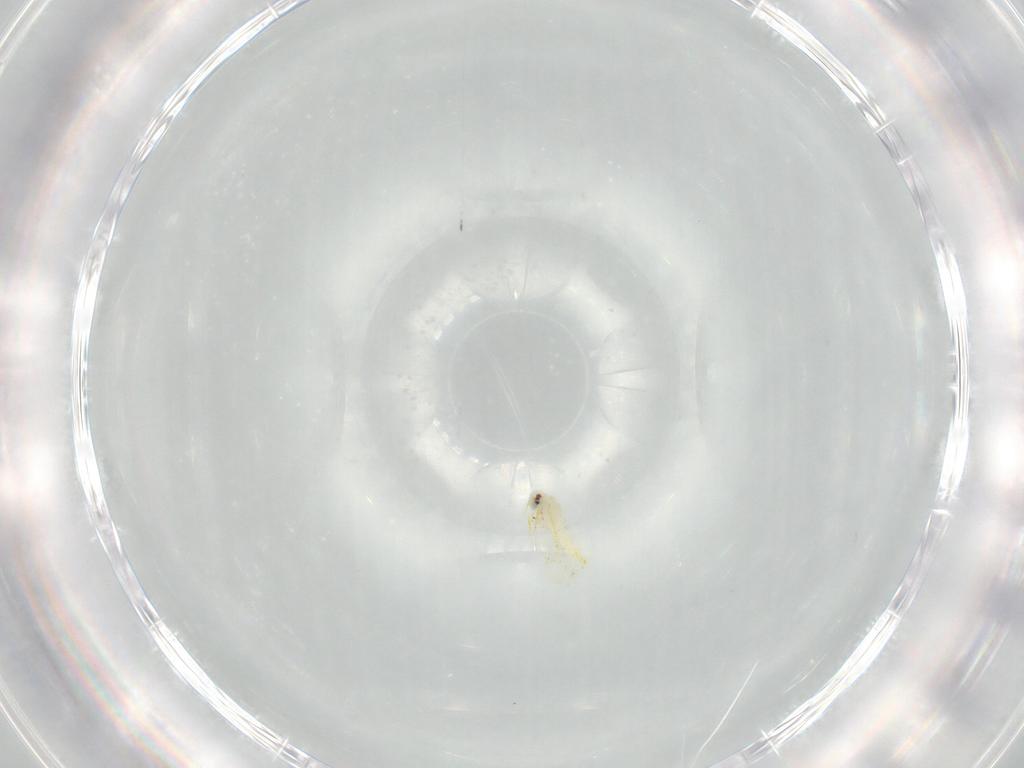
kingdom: Animalia
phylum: Arthropoda
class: Insecta
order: Hemiptera
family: Aleyrodidae
